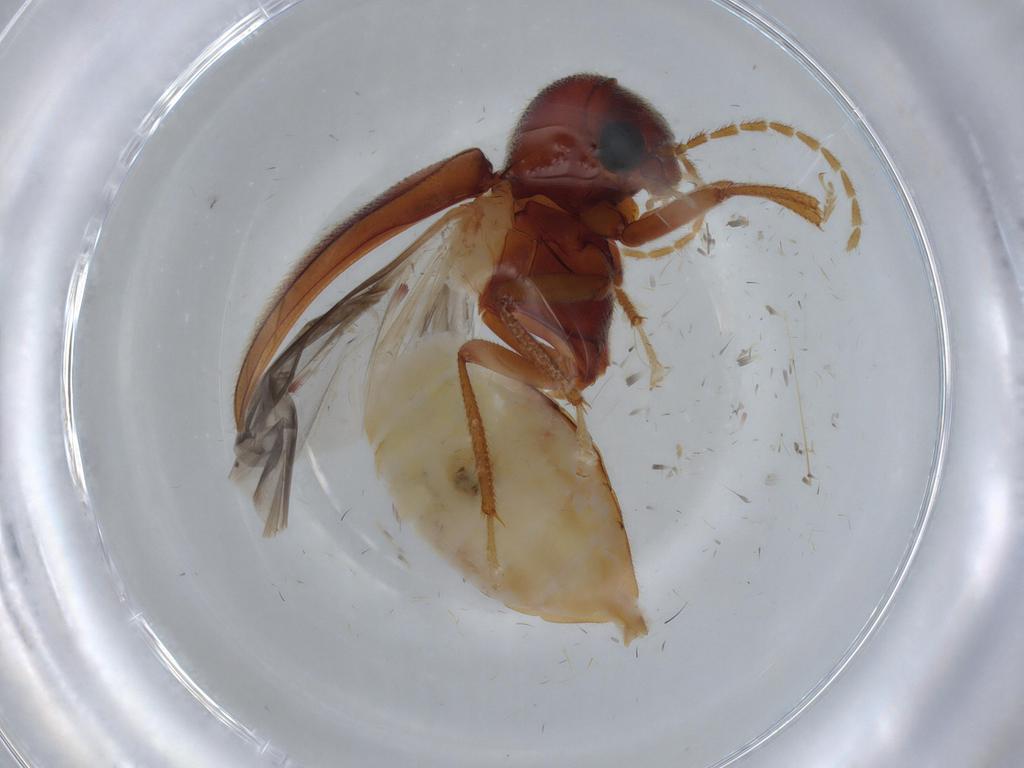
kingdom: Animalia
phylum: Arthropoda
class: Insecta
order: Coleoptera
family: Ptilodactylidae
